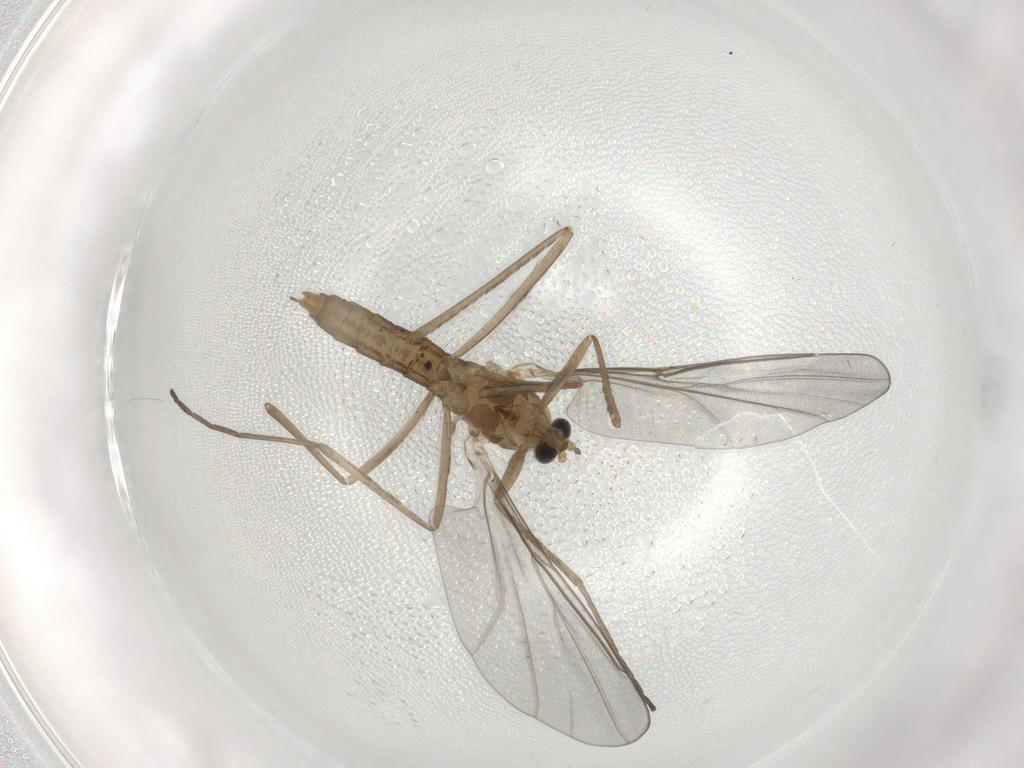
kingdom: Animalia
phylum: Arthropoda
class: Insecta
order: Diptera
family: Cecidomyiidae
